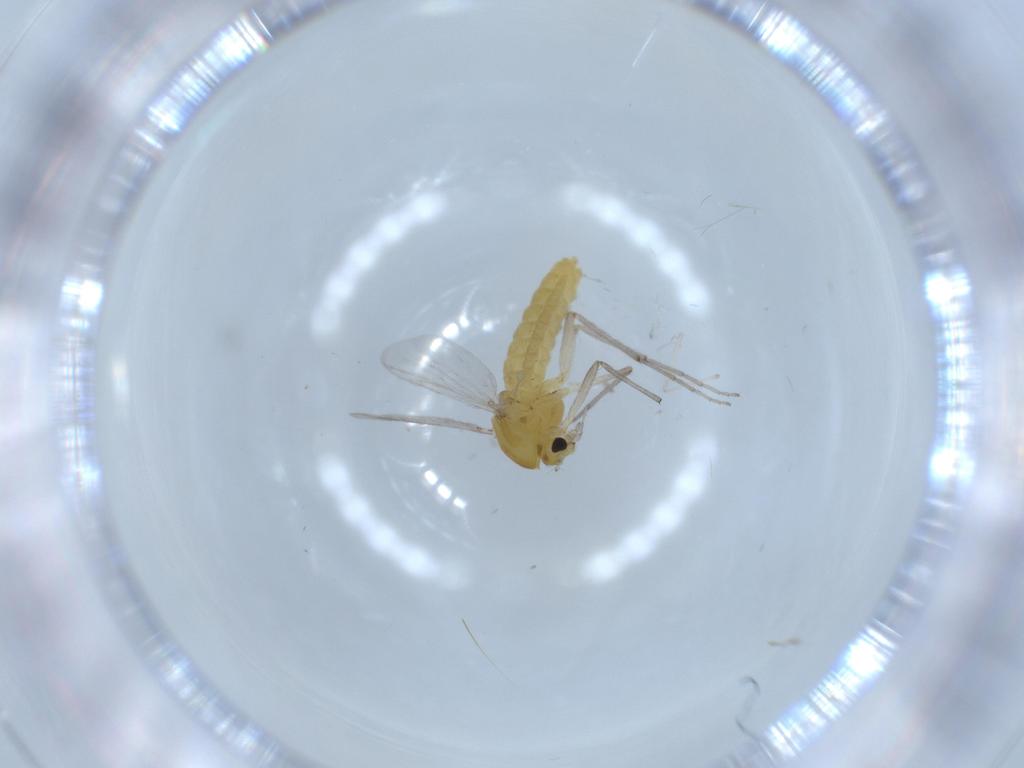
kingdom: Animalia
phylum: Arthropoda
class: Insecta
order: Diptera
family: Chironomidae
